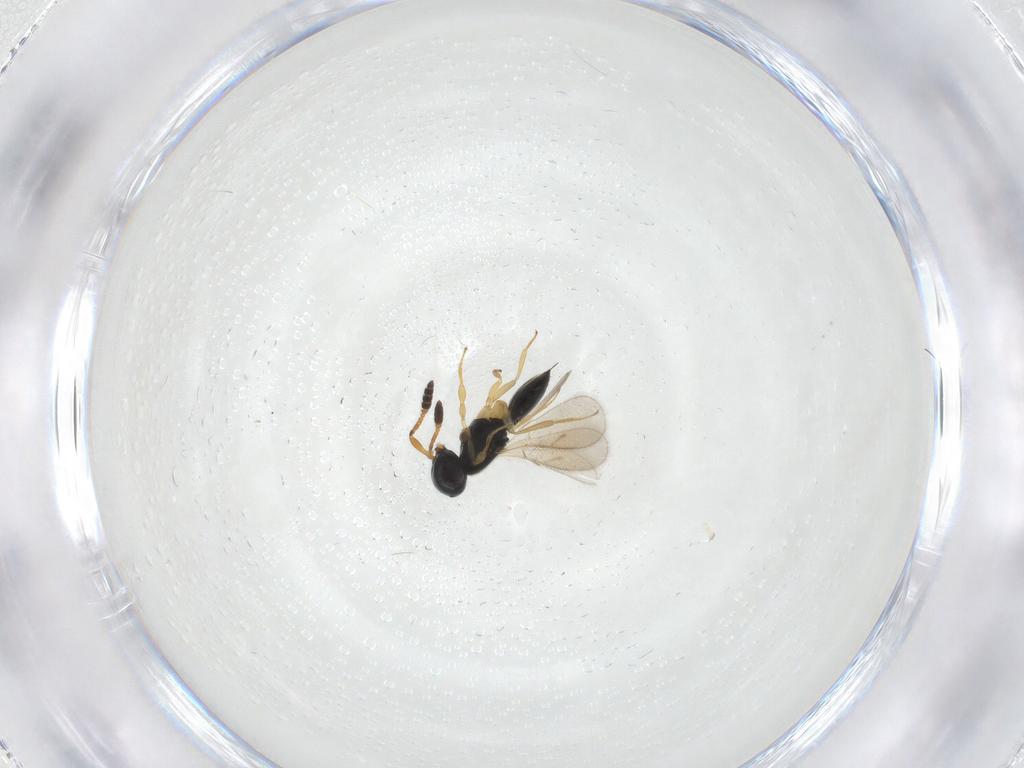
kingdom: Animalia
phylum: Arthropoda
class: Insecta
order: Hymenoptera
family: Scelionidae
